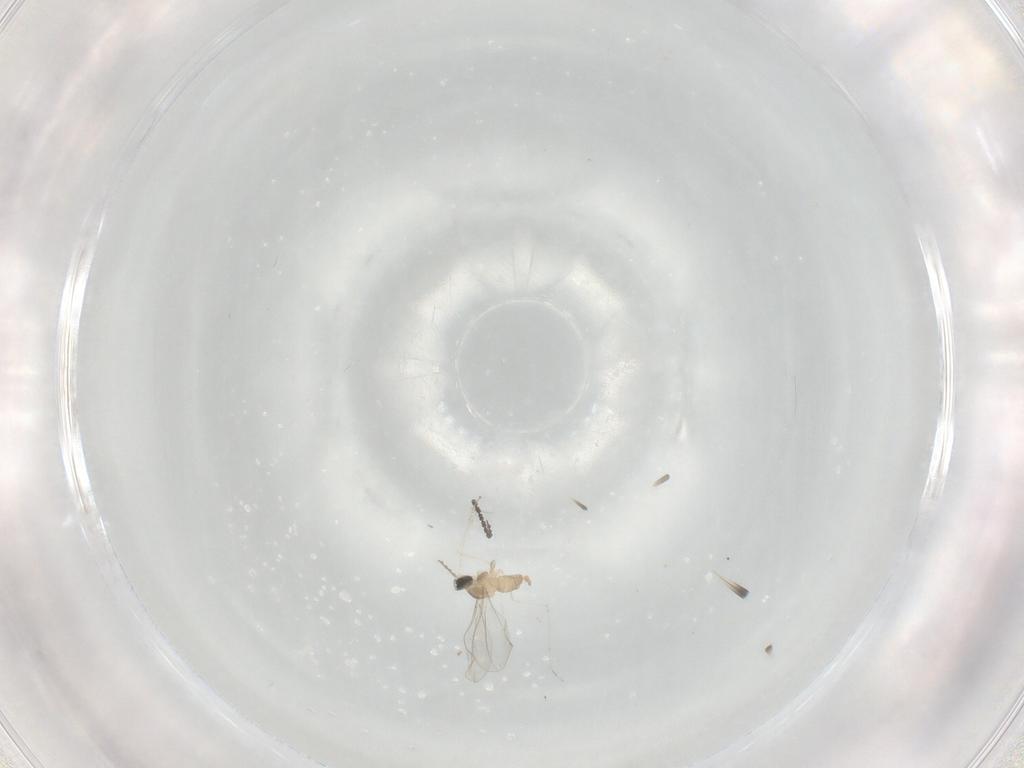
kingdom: Animalia
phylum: Arthropoda
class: Insecta
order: Diptera
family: Cecidomyiidae
